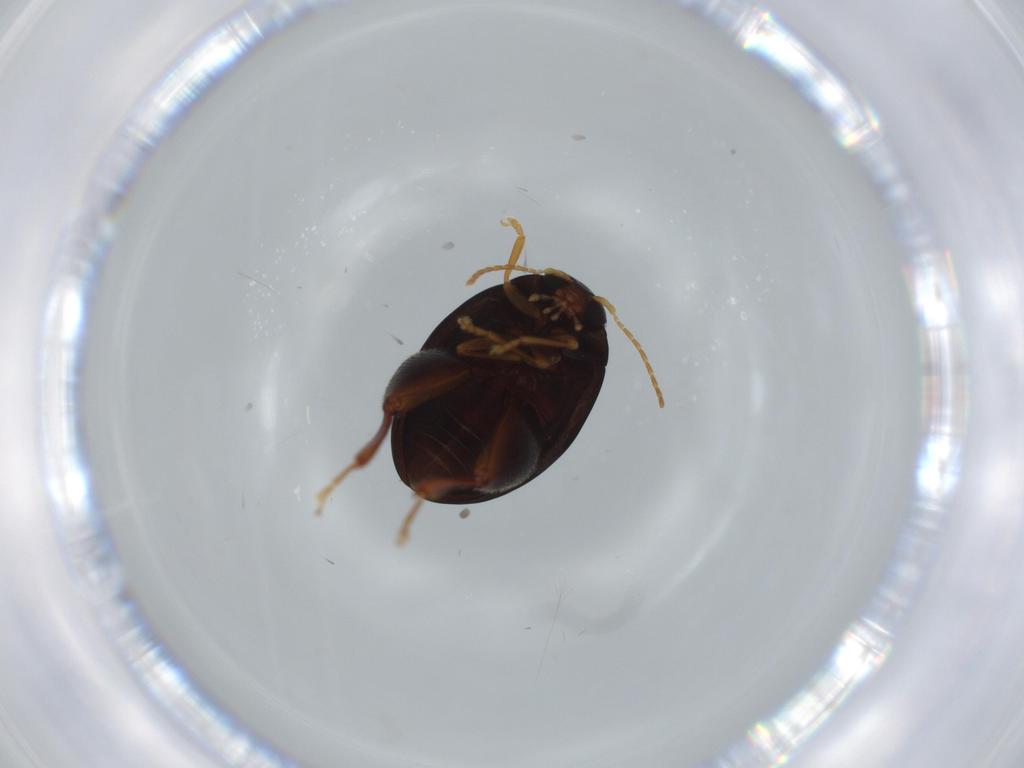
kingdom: Animalia
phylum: Arthropoda
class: Insecta
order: Coleoptera
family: Chrysomelidae
